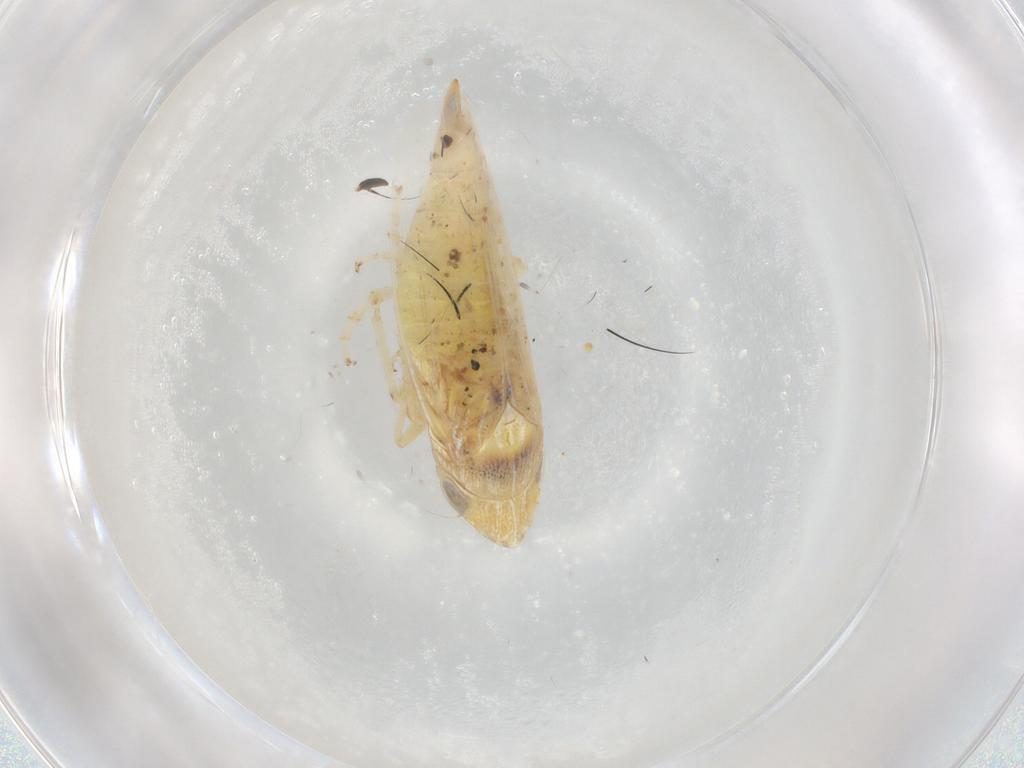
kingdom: Animalia
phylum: Arthropoda
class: Insecta
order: Hemiptera
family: Cicadellidae
